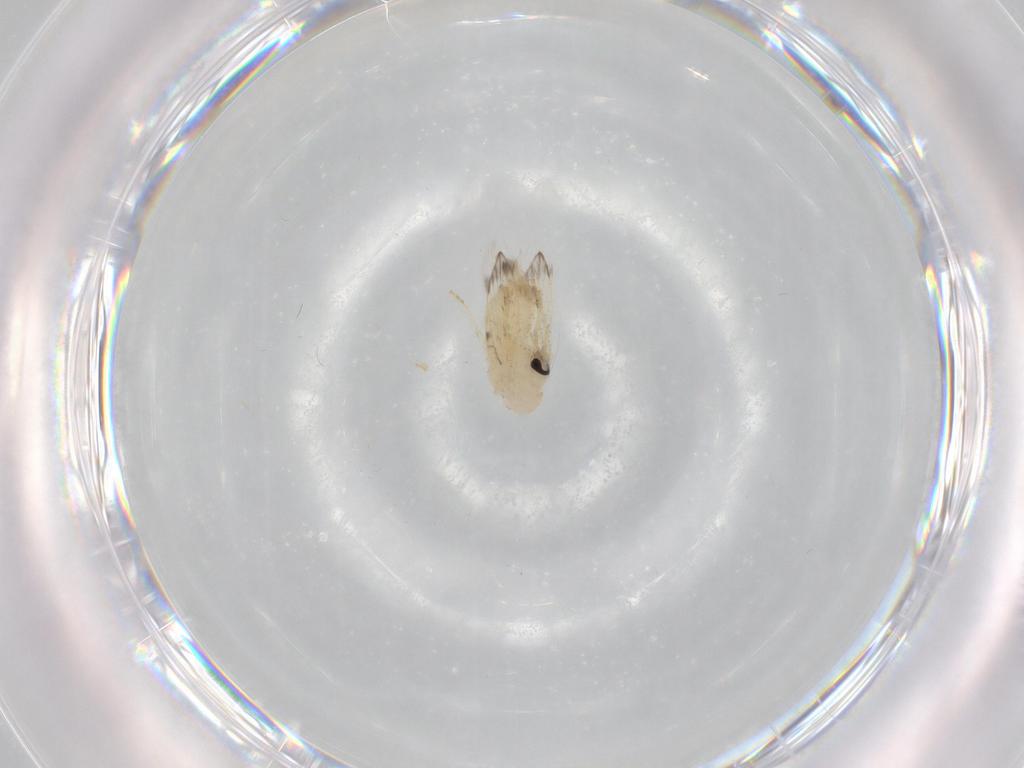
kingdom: Animalia
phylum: Arthropoda
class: Insecta
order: Diptera
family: Psychodidae
